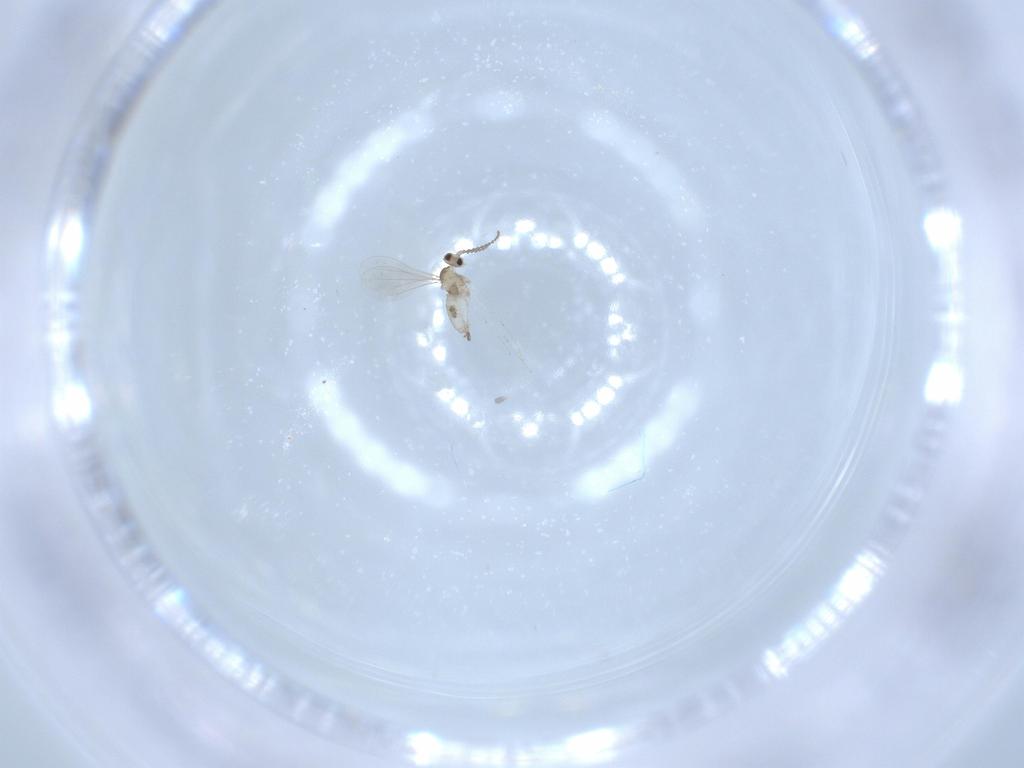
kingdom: Animalia
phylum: Arthropoda
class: Insecta
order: Diptera
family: Cecidomyiidae
